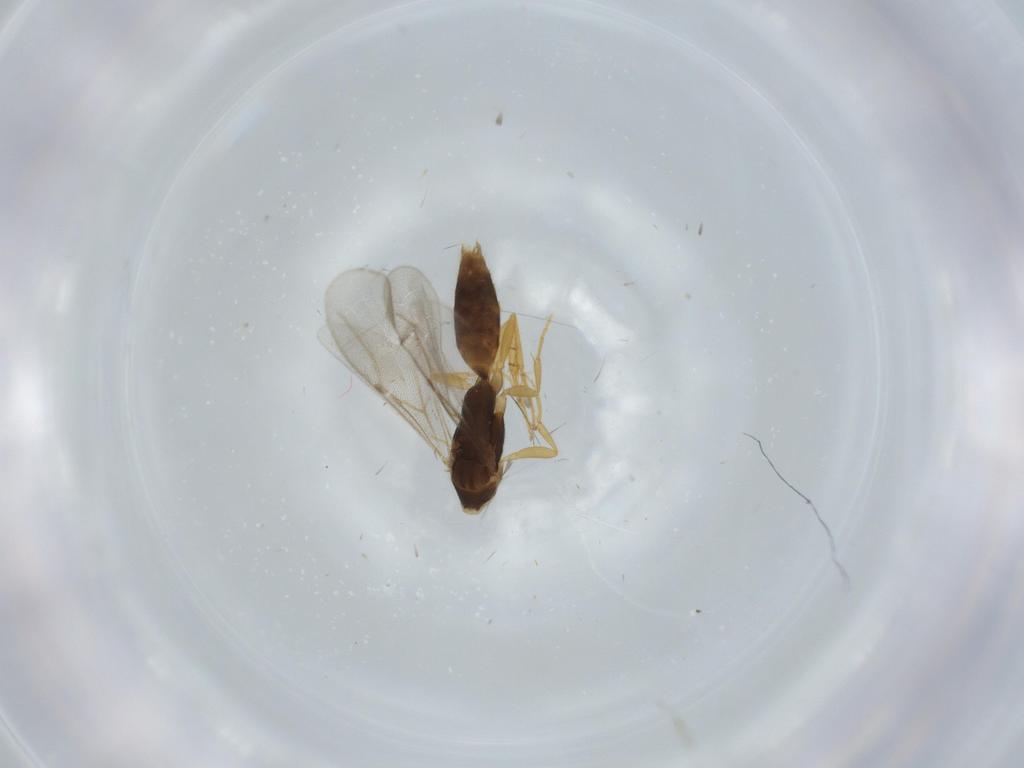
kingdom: Animalia
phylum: Arthropoda
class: Insecta
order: Hymenoptera
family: Bethylidae
